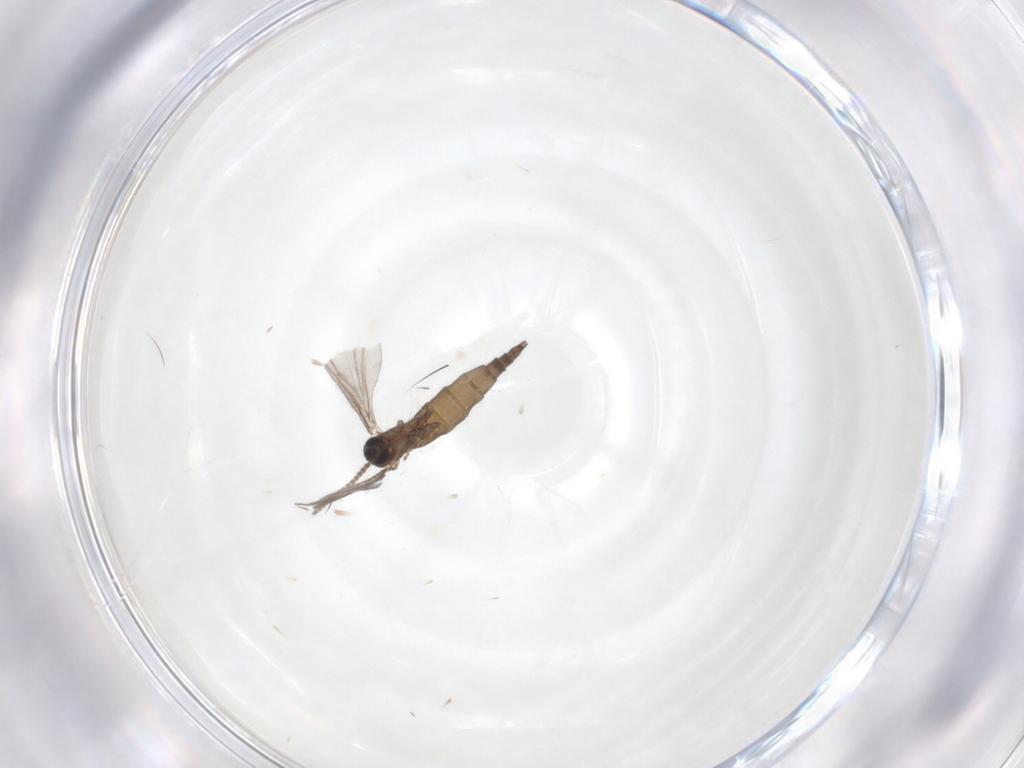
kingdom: Animalia
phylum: Arthropoda
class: Insecta
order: Diptera
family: Sciaridae
